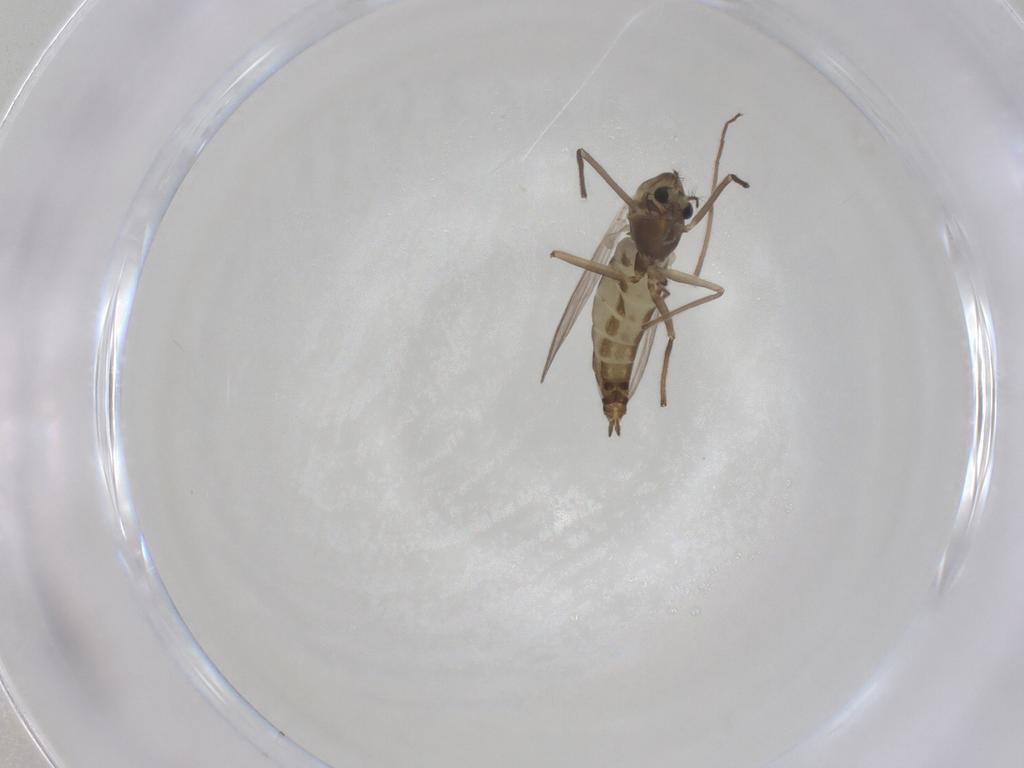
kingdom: Animalia
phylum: Arthropoda
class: Insecta
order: Diptera
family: Chironomidae
